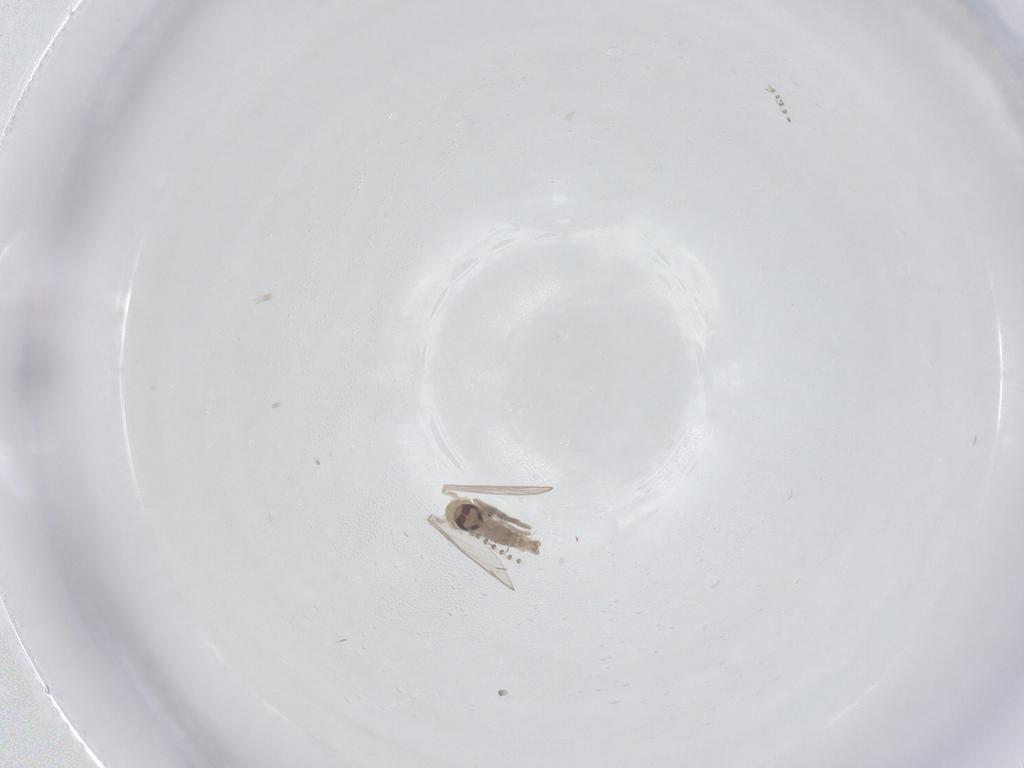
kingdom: Animalia
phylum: Arthropoda
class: Insecta
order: Diptera
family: Psychodidae
